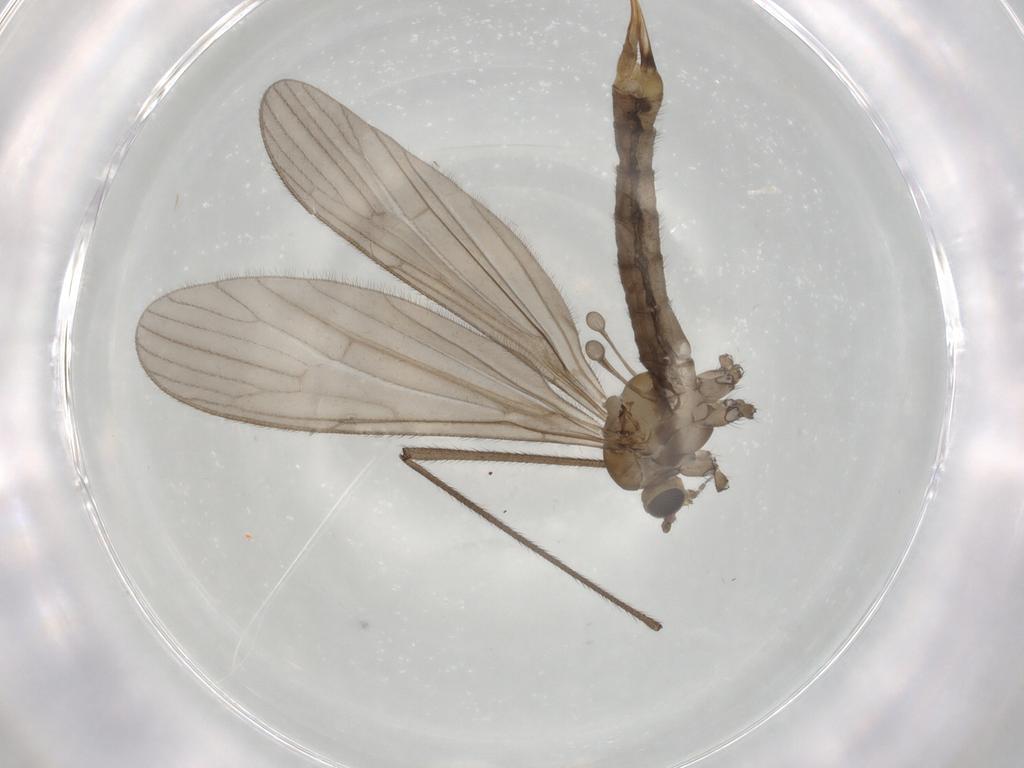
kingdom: Animalia
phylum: Arthropoda
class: Insecta
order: Diptera
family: Limoniidae
